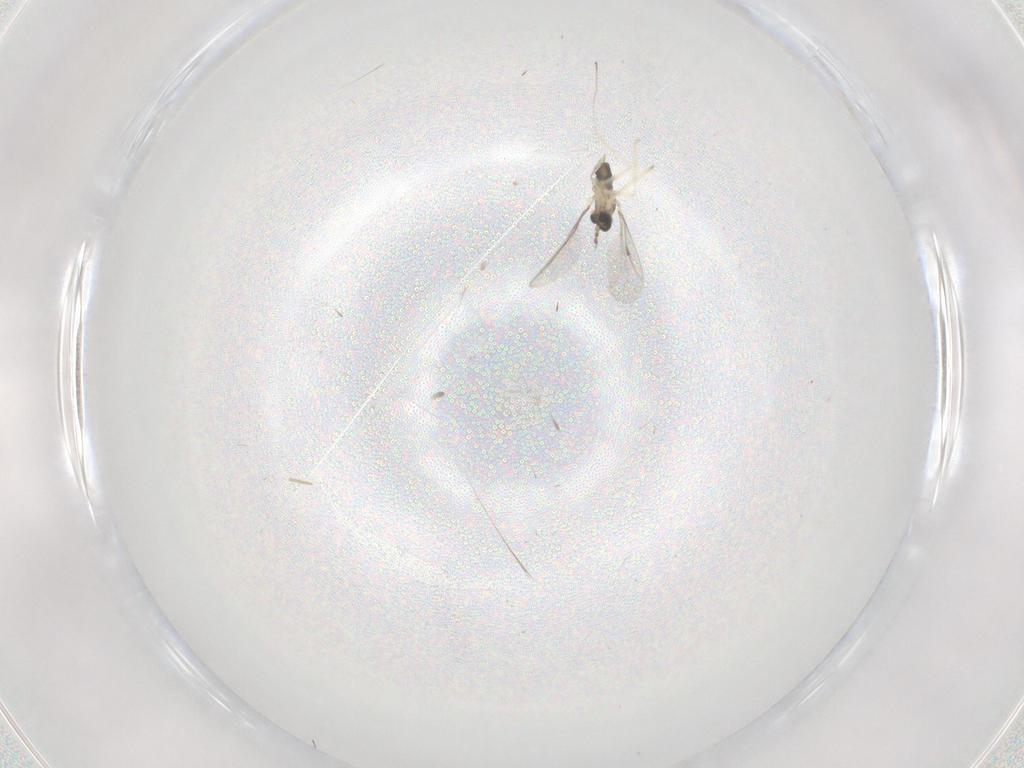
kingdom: Animalia
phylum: Arthropoda
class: Insecta
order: Diptera
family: Cecidomyiidae
